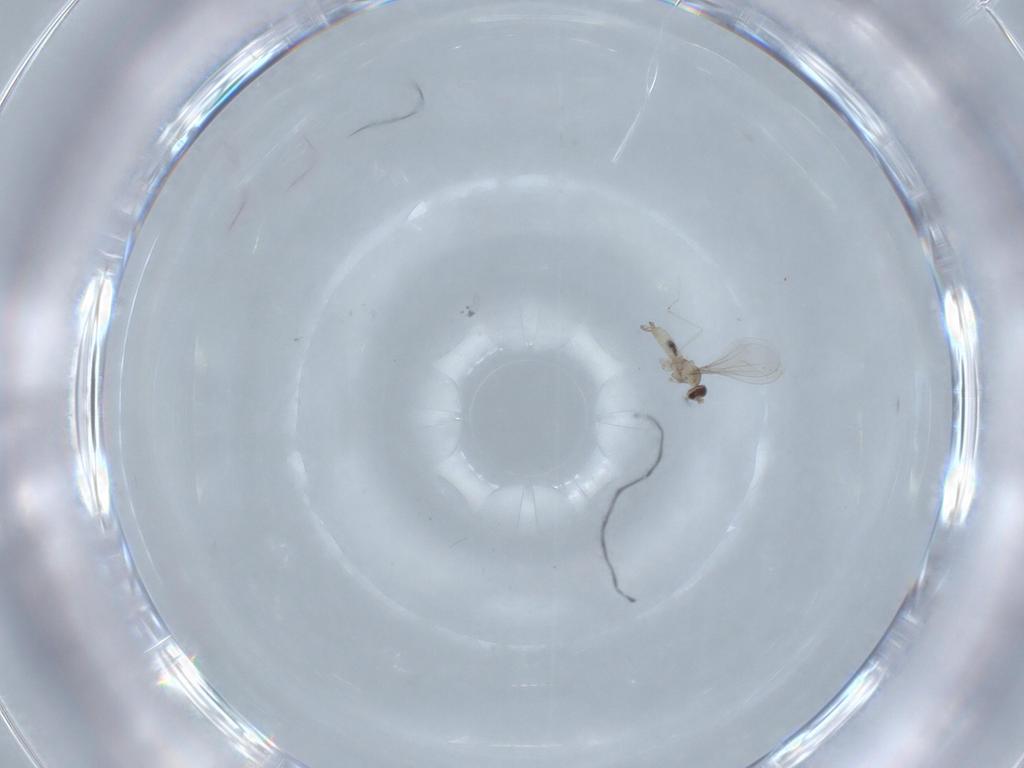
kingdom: Animalia
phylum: Arthropoda
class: Insecta
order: Diptera
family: Cecidomyiidae
